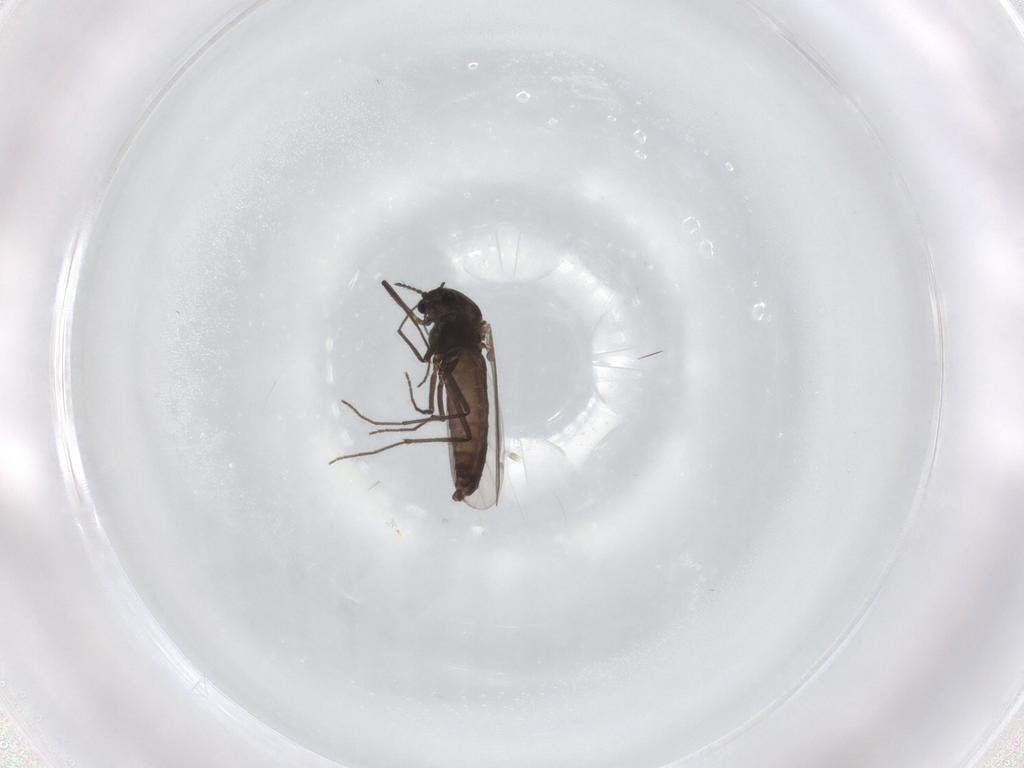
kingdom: Animalia
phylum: Arthropoda
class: Insecta
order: Diptera
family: Chironomidae
